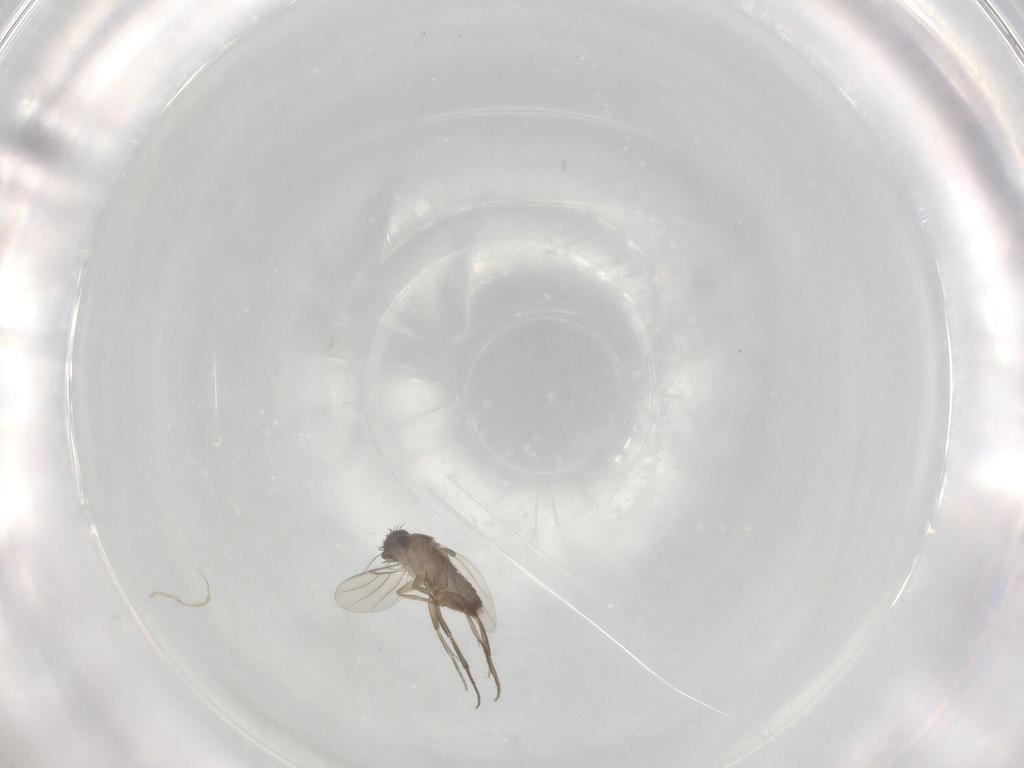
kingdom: Animalia
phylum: Arthropoda
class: Insecta
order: Diptera
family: Phoridae
